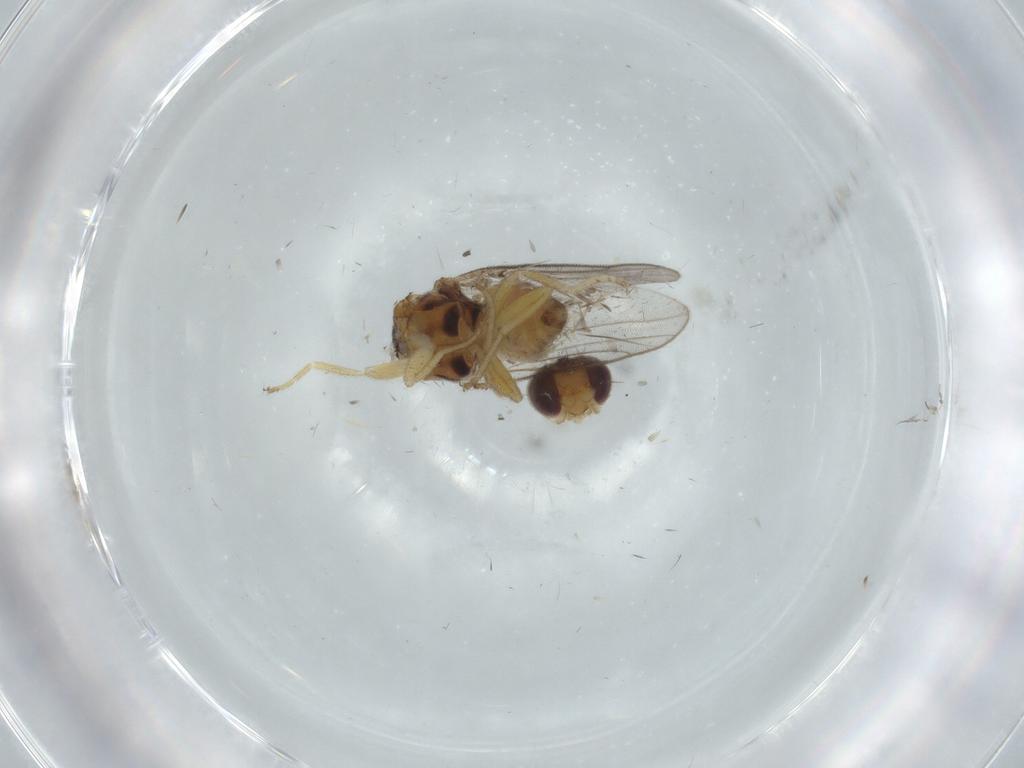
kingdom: Animalia
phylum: Arthropoda
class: Insecta
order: Diptera
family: Chloropidae
